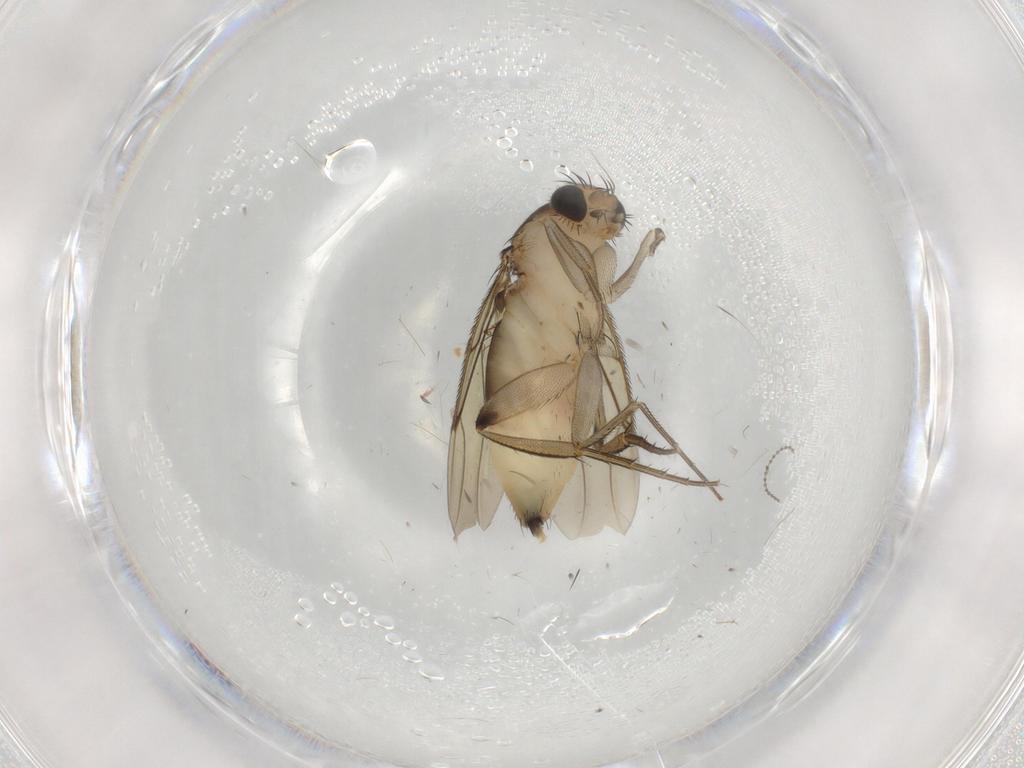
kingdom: Animalia
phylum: Arthropoda
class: Insecta
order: Diptera
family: Phoridae
